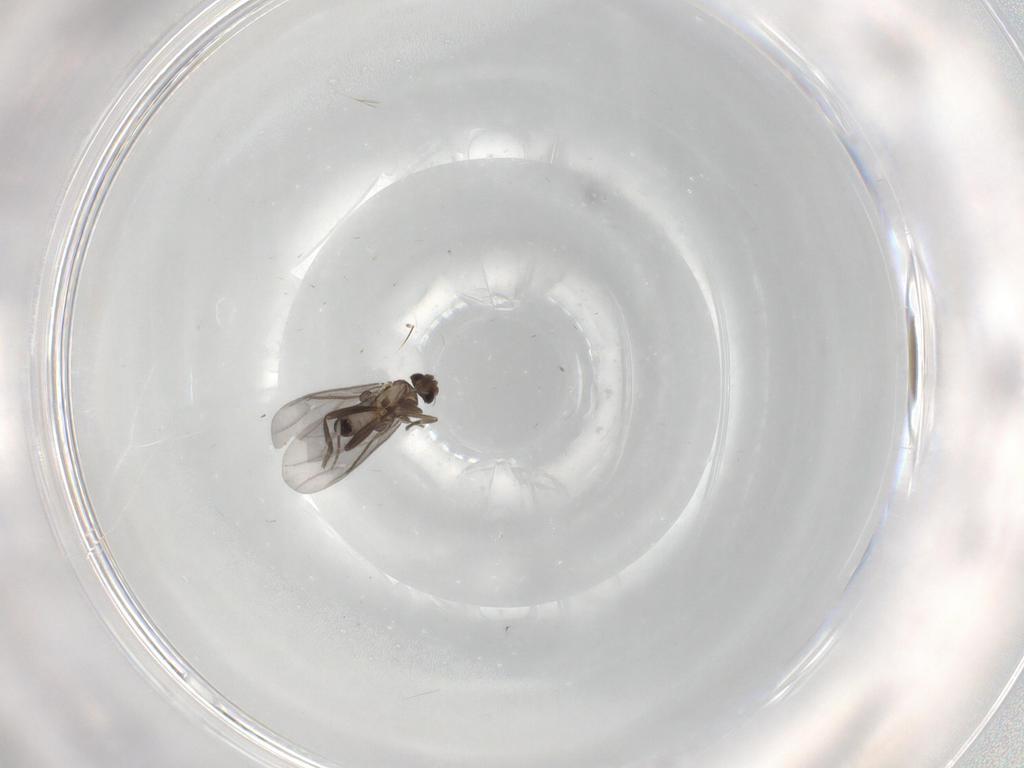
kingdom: Animalia
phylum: Arthropoda
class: Insecta
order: Diptera
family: Phoridae
